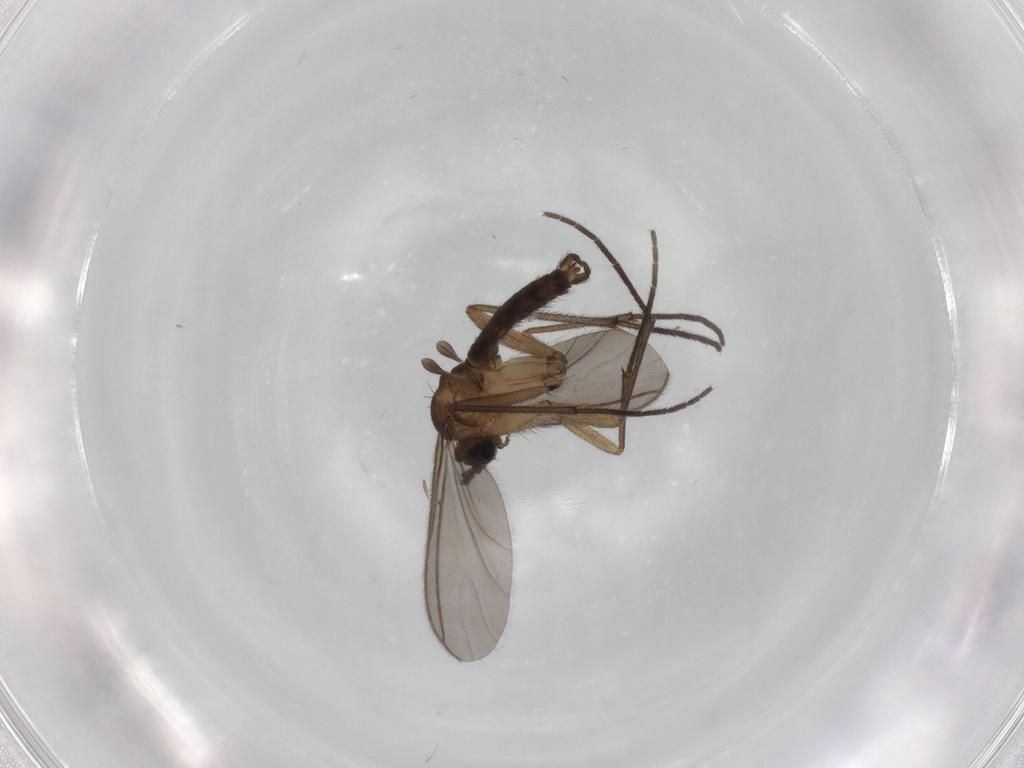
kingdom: Animalia
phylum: Arthropoda
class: Insecta
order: Diptera
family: Sciaridae
